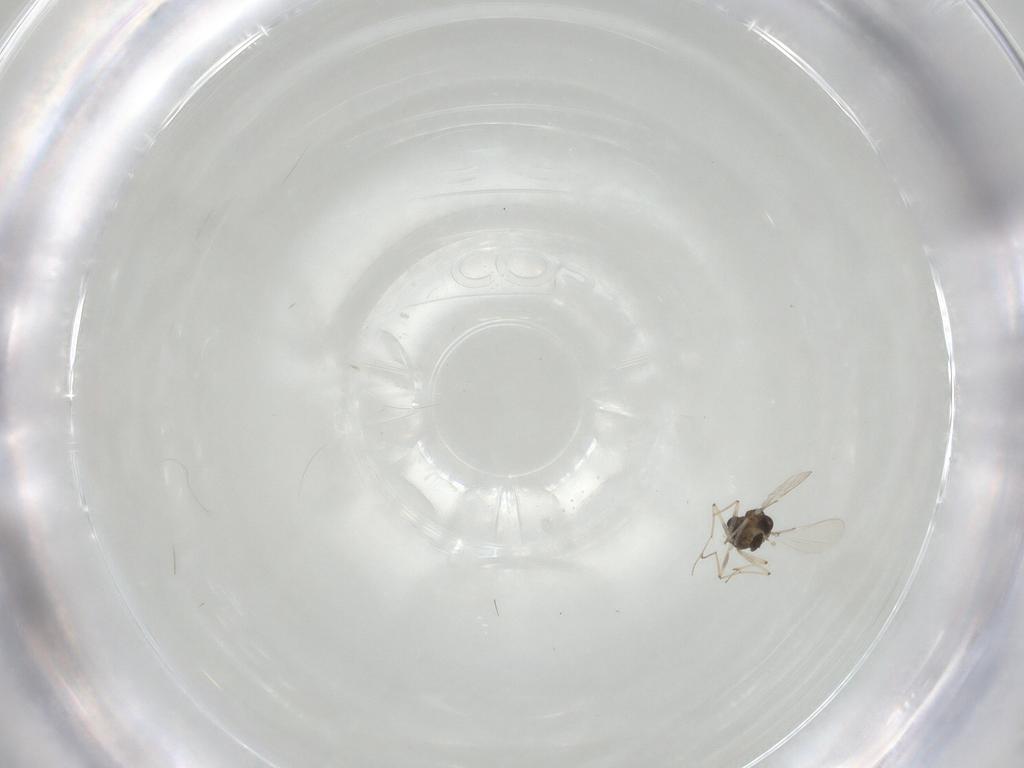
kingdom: Animalia
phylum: Arthropoda
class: Insecta
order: Diptera
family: Chironomidae
